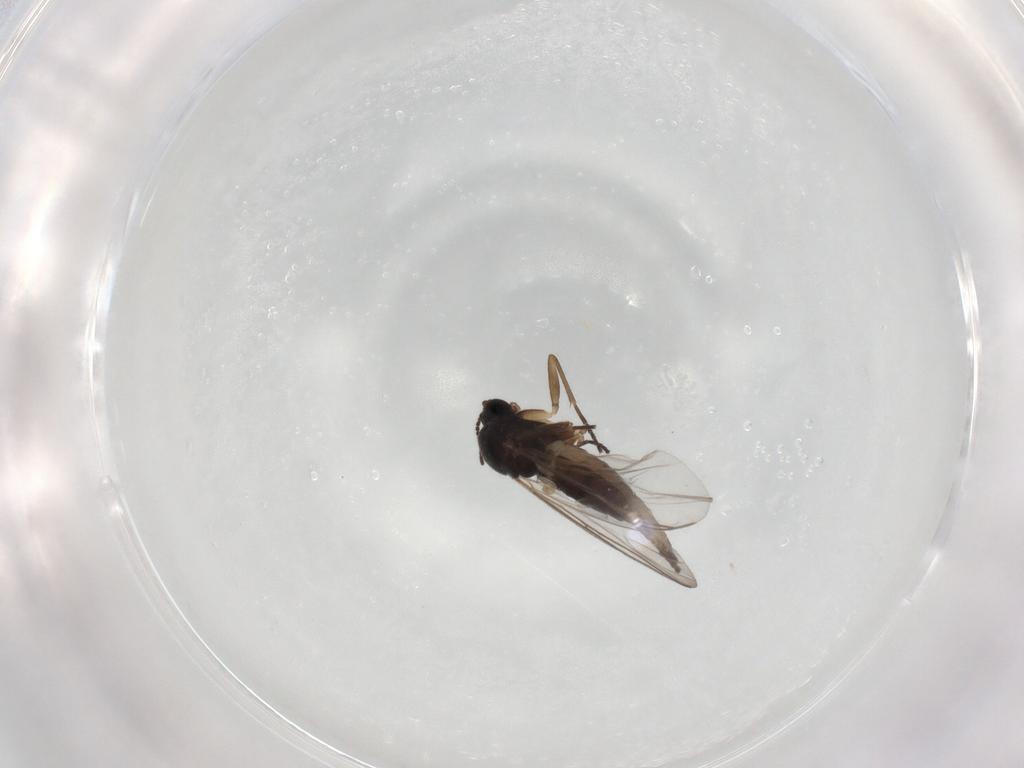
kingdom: Animalia
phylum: Arthropoda
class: Insecta
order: Diptera
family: Sciaridae
